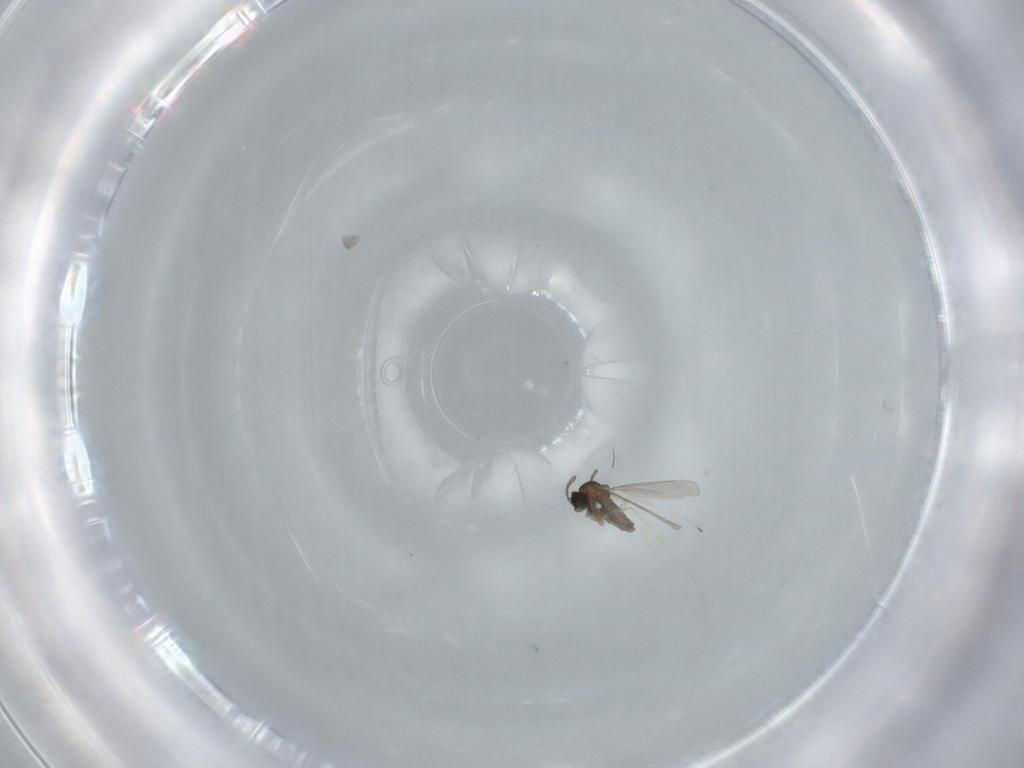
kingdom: Animalia
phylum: Arthropoda
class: Insecta
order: Diptera
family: Cecidomyiidae
